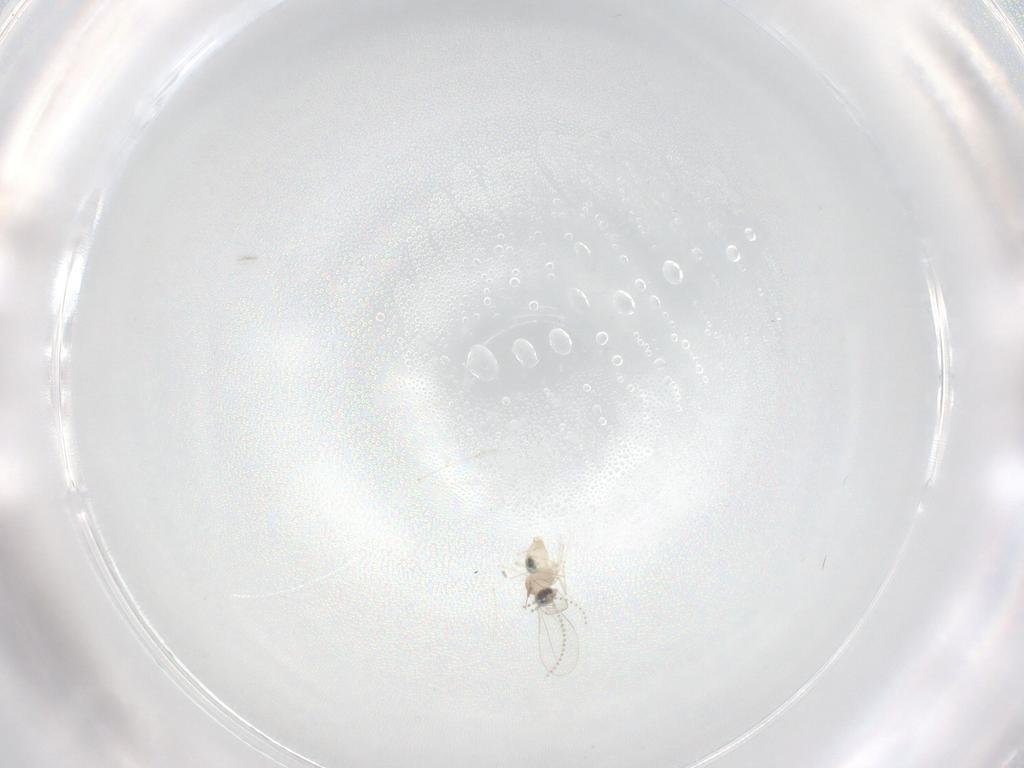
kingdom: Animalia
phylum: Arthropoda
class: Insecta
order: Diptera
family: Cecidomyiidae
